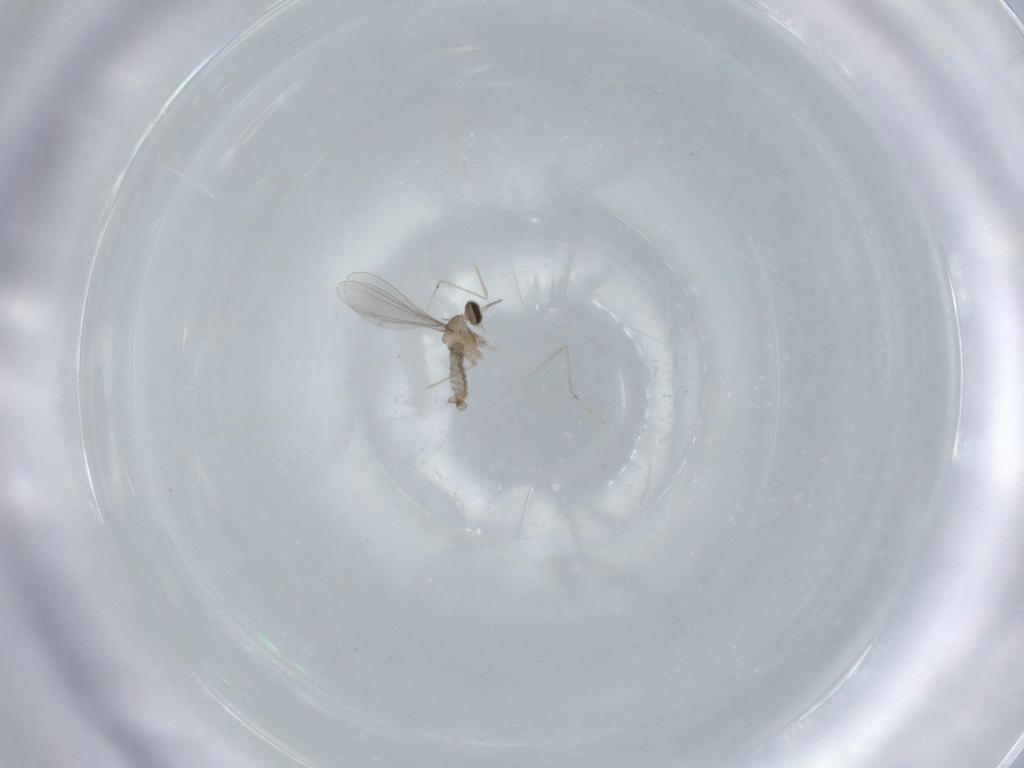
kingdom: Animalia
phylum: Arthropoda
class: Insecta
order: Diptera
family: Cecidomyiidae
